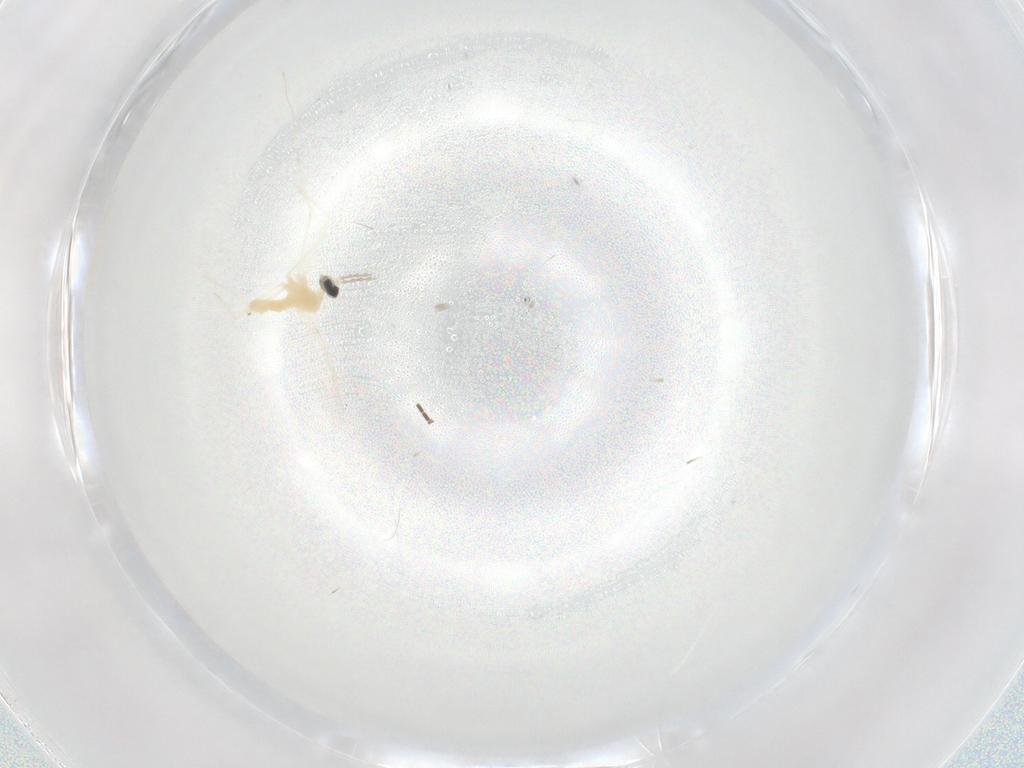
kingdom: Animalia
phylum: Arthropoda
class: Insecta
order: Diptera
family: Sciaridae
